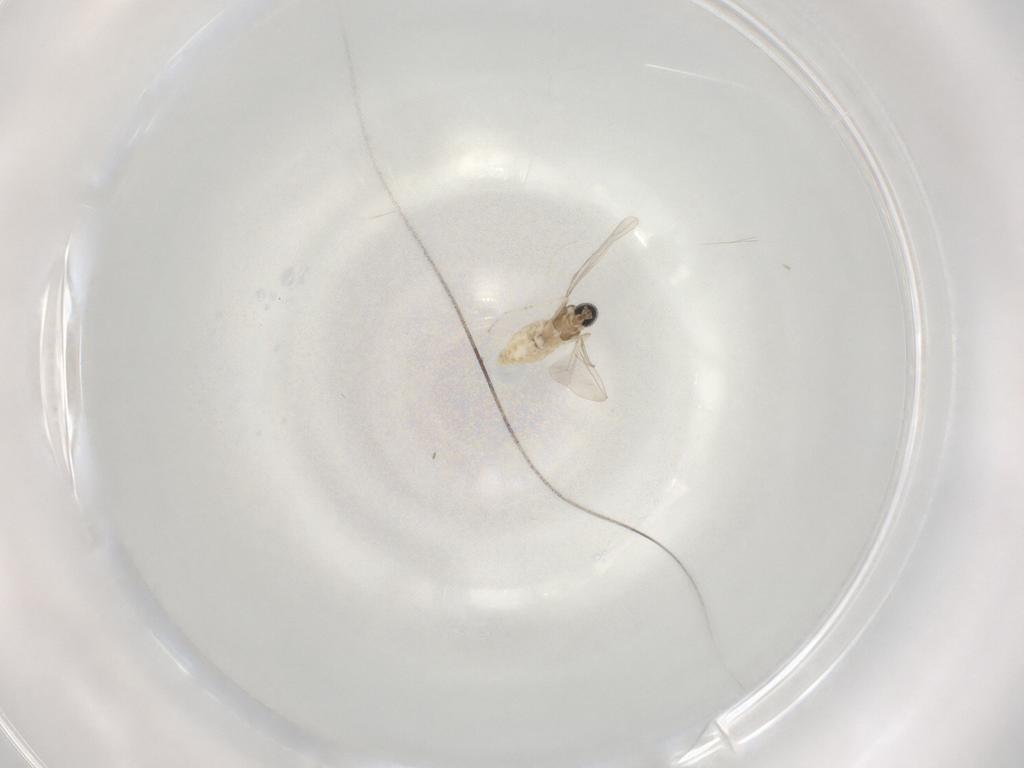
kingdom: Animalia
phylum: Arthropoda
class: Insecta
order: Diptera
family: Cecidomyiidae
